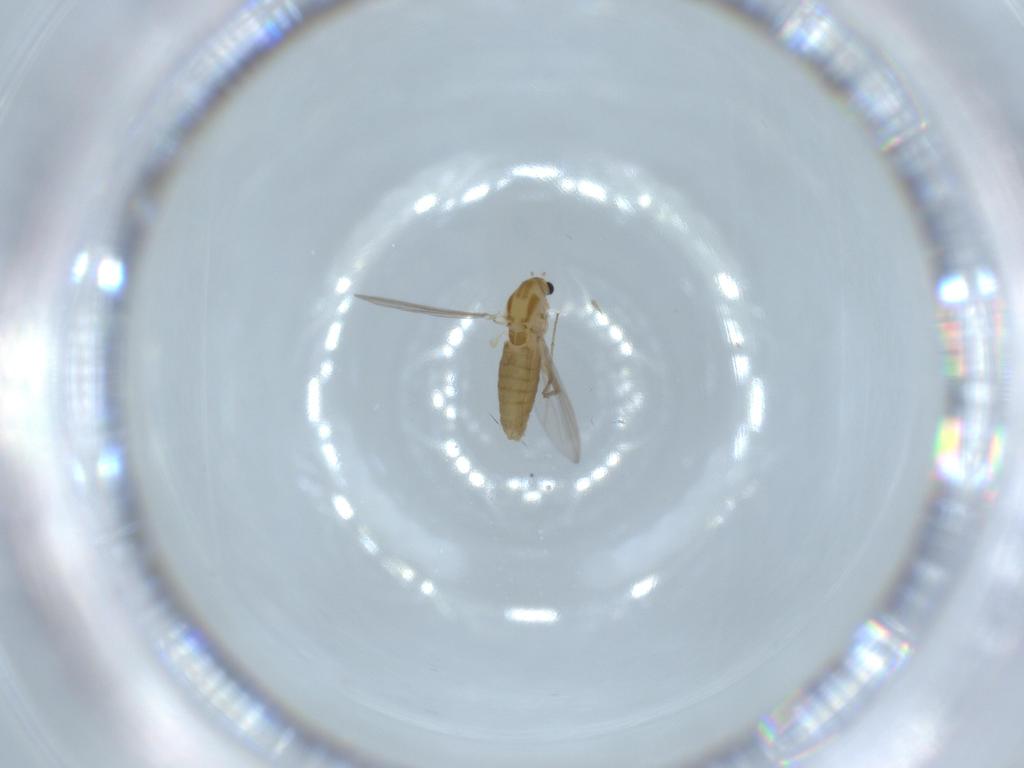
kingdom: Animalia
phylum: Arthropoda
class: Insecta
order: Diptera
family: Chironomidae
